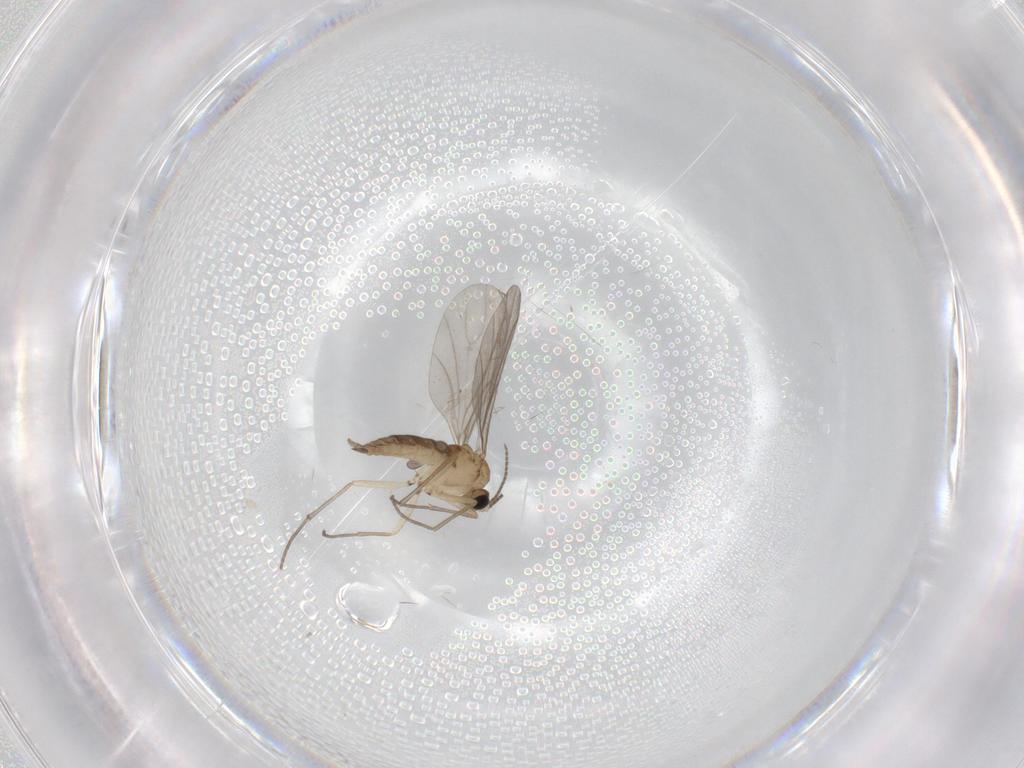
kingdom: Animalia
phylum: Arthropoda
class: Insecta
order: Diptera
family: Sciaridae
